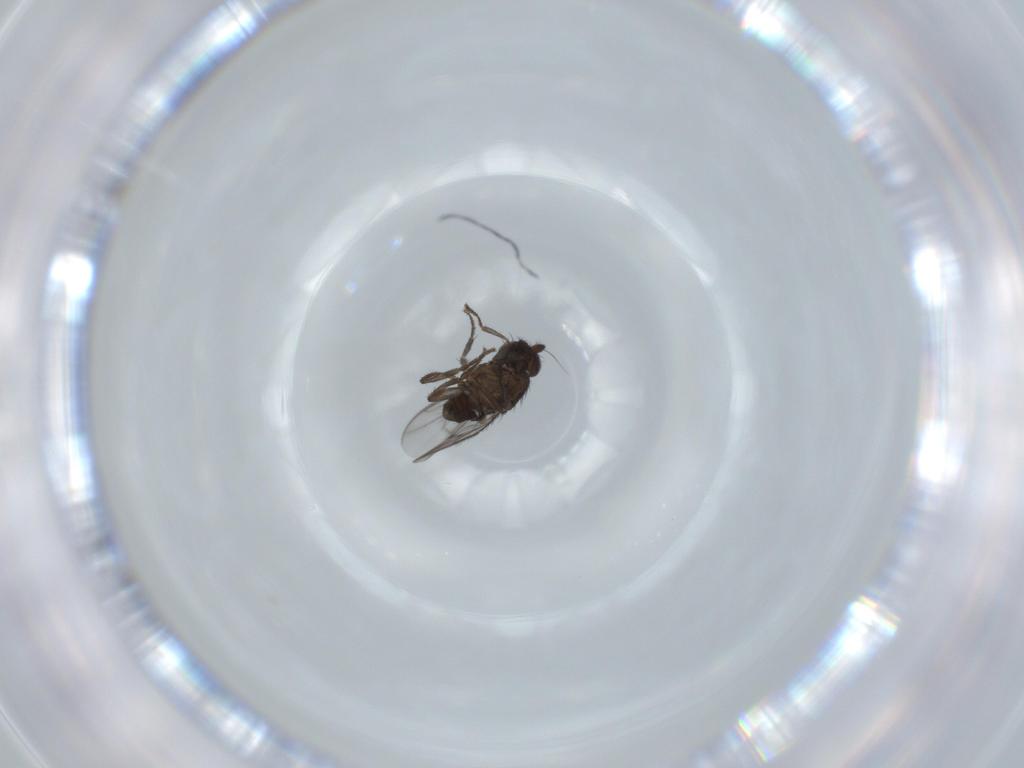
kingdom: Animalia
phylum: Arthropoda
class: Insecta
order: Diptera
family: Sphaeroceridae
